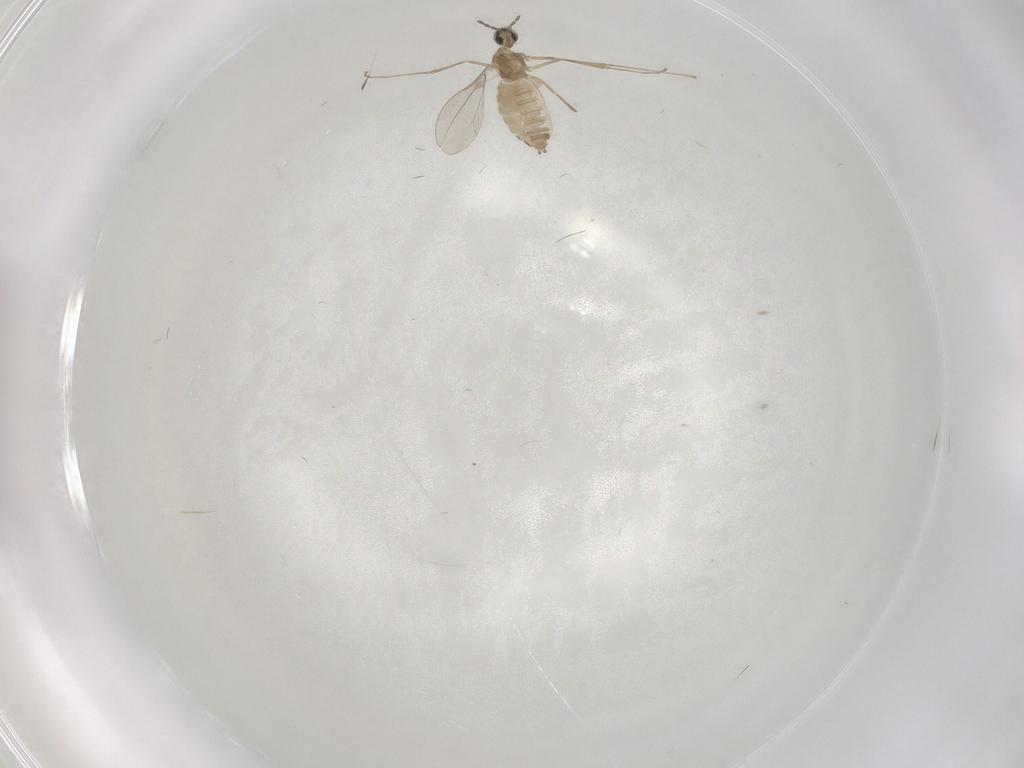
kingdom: Animalia
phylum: Arthropoda
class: Insecta
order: Diptera
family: Cecidomyiidae
